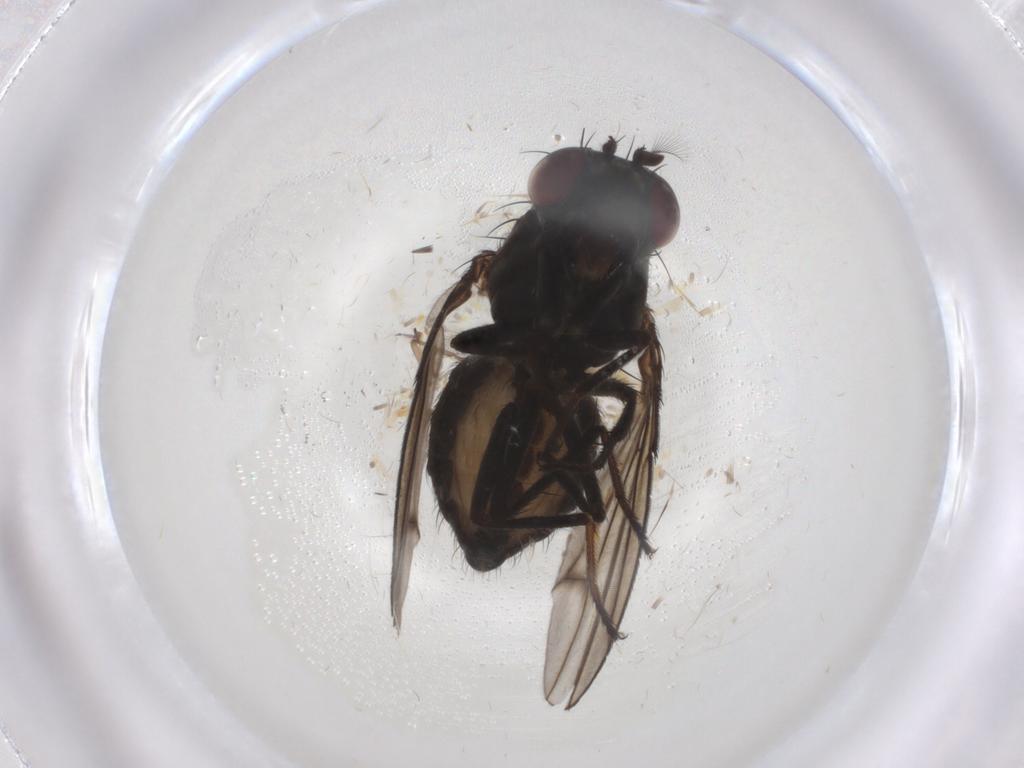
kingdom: Animalia
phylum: Arthropoda
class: Insecta
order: Diptera
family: Ephydridae
